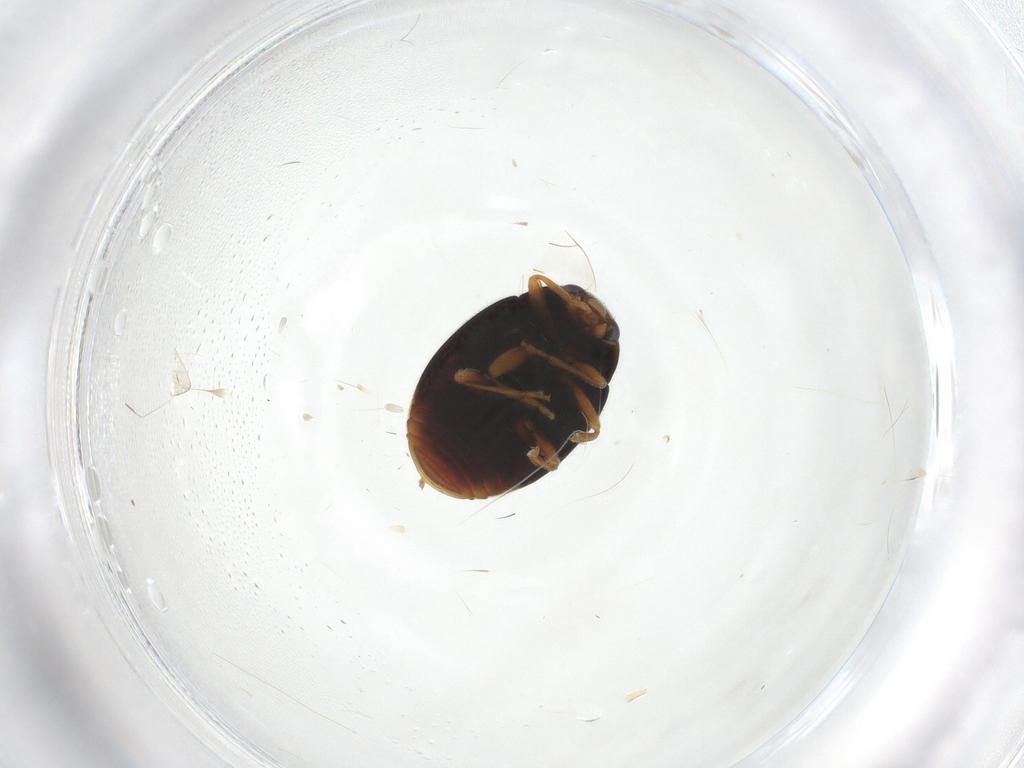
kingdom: Animalia
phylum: Arthropoda
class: Insecta
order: Coleoptera
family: Coccinellidae
